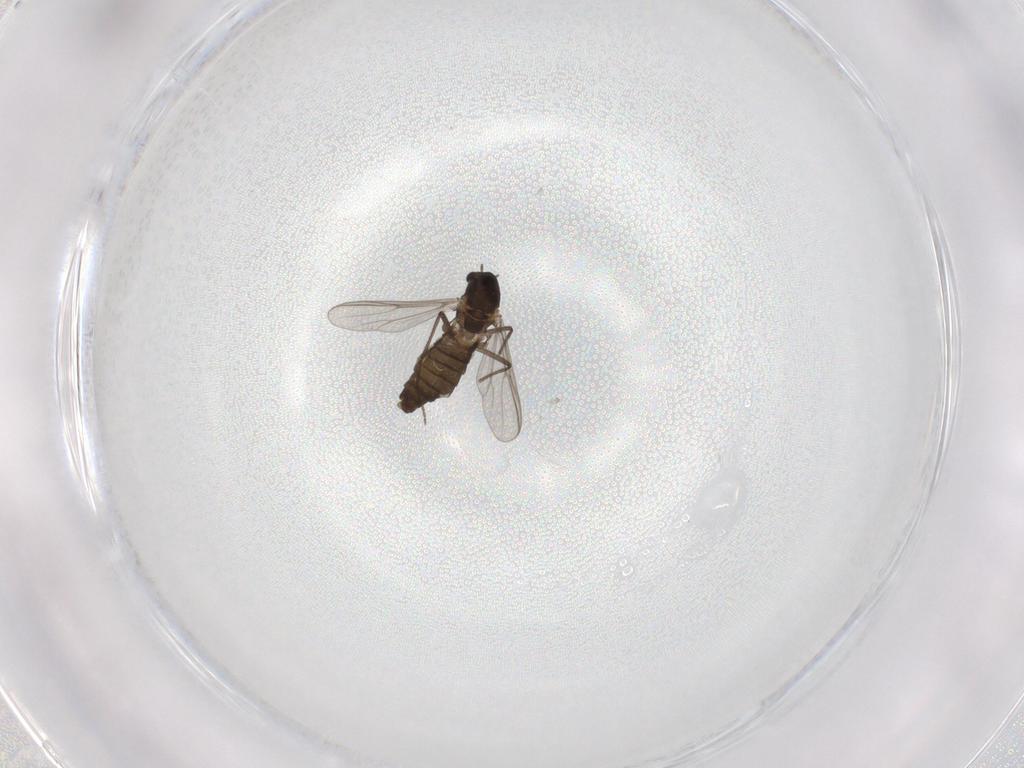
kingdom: Animalia
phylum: Arthropoda
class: Insecta
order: Diptera
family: Chironomidae
